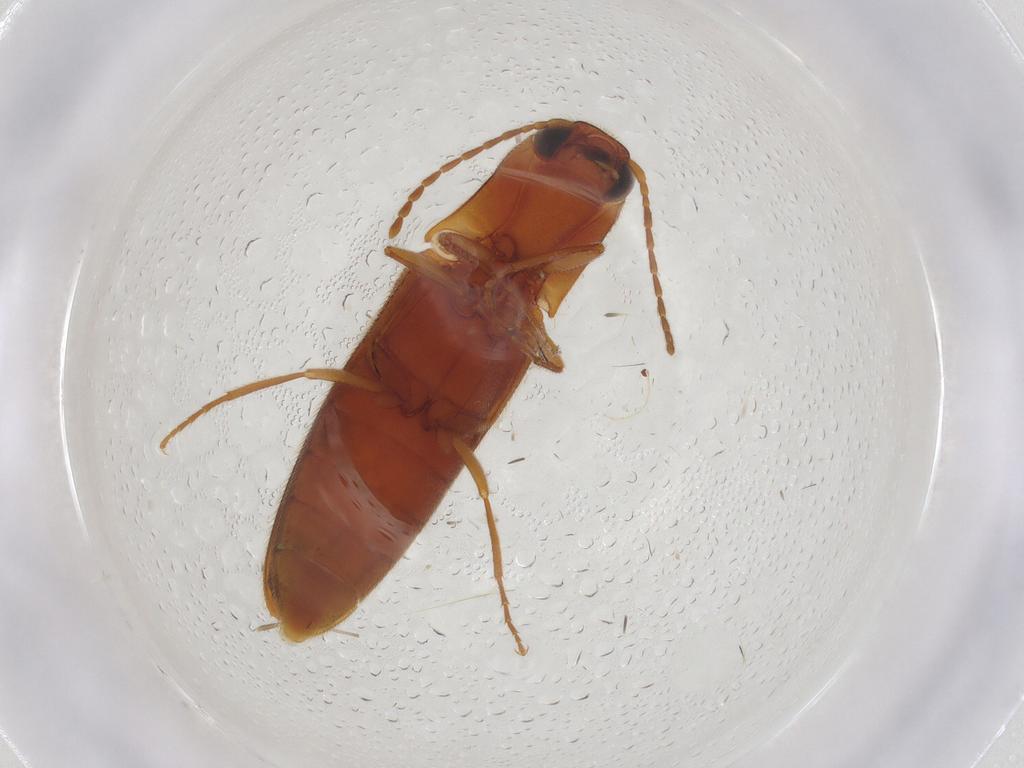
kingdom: Animalia
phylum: Arthropoda
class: Insecta
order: Coleoptera
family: Elateridae
